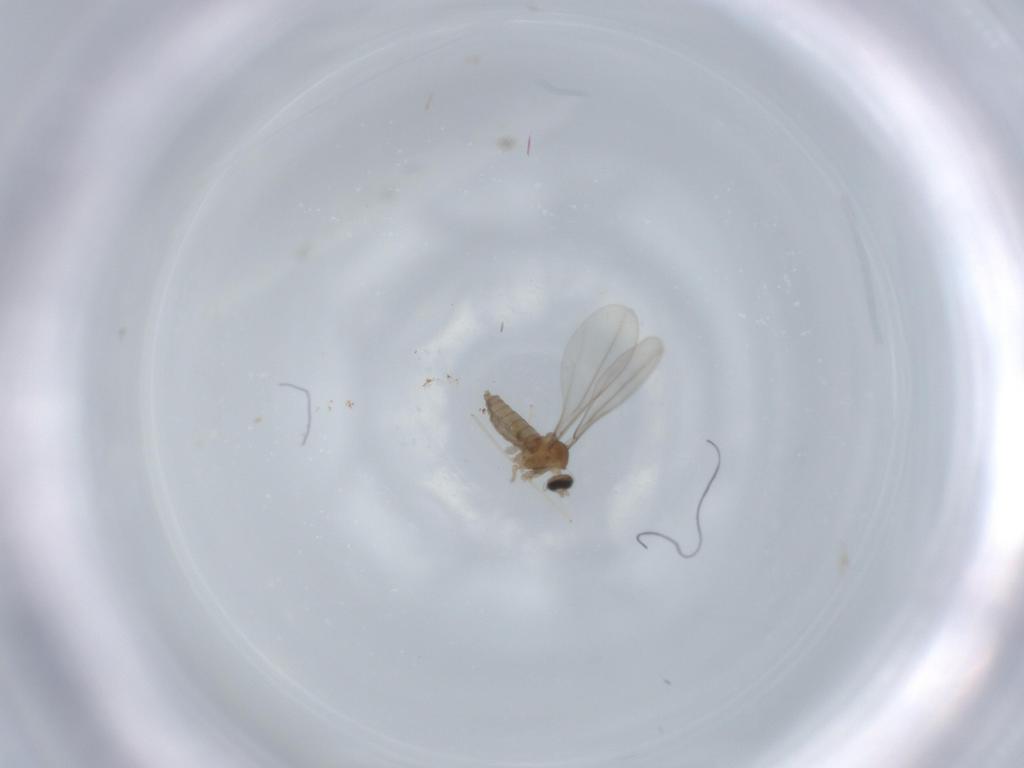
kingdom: Animalia
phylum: Arthropoda
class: Insecta
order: Diptera
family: Cecidomyiidae
